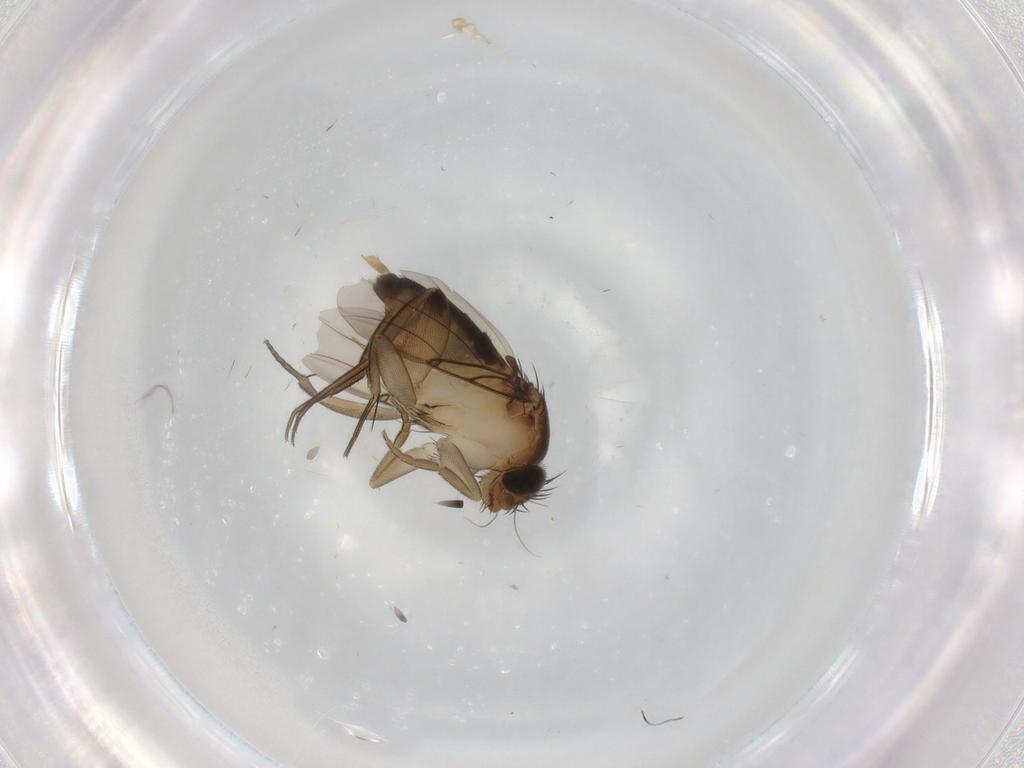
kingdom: Animalia
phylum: Arthropoda
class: Insecta
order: Diptera
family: Phoridae
